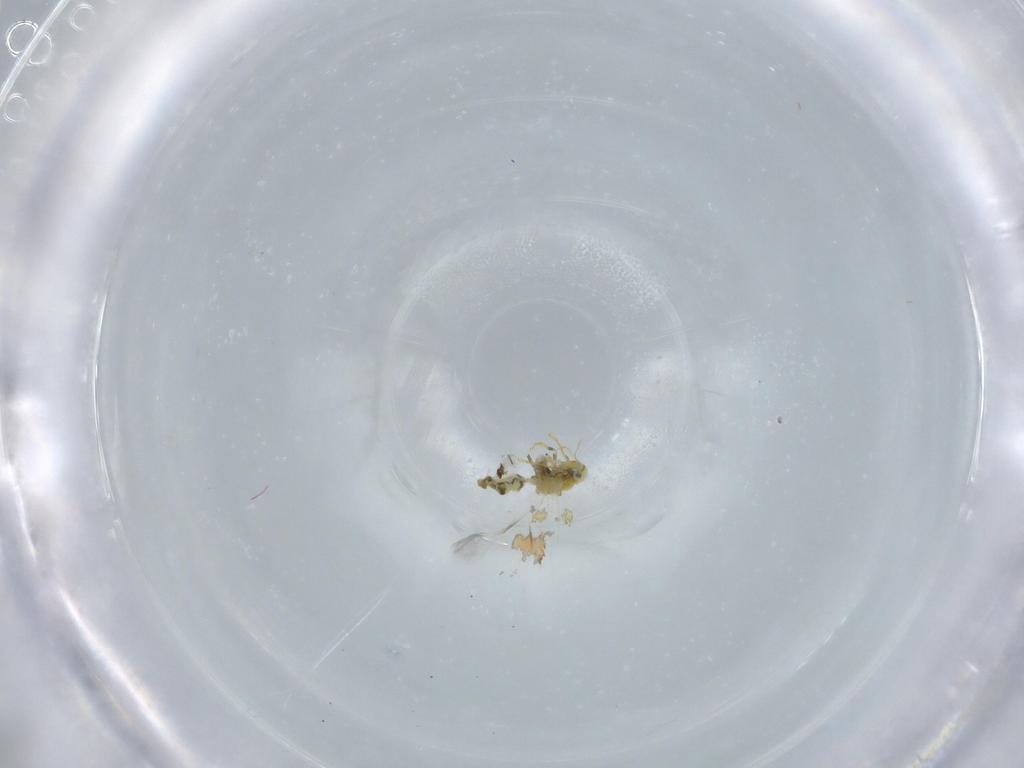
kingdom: Animalia
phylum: Arthropoda
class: Insecta
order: Hemiptera
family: Aleyrodidae
